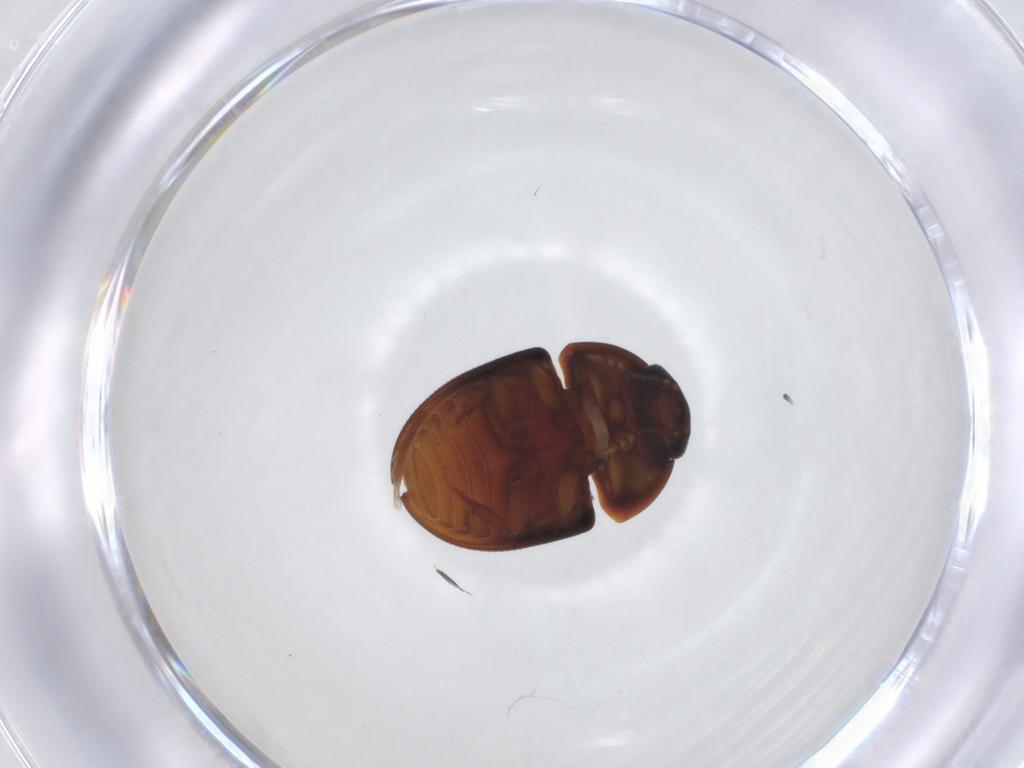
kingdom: Animalia
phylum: Arthropoda
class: Insecta
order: Coleoptera
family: Phalacridae
